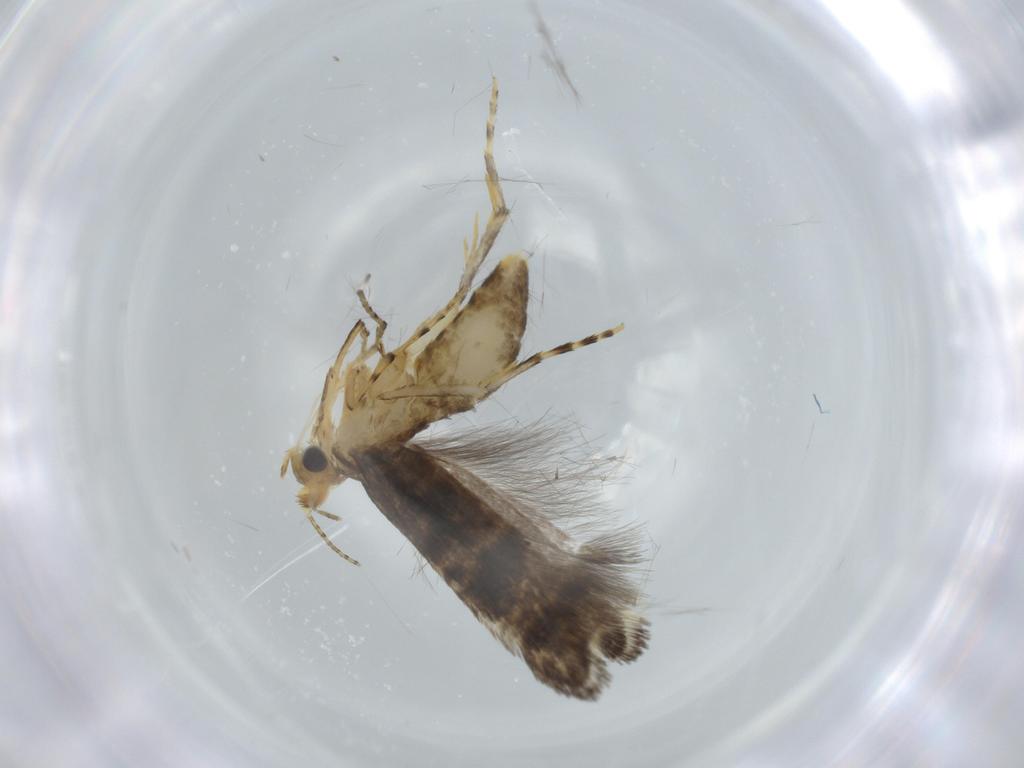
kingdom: Animalia
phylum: Arthropoda
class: Insecta
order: Lepidoptera
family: Argyresthiidae
